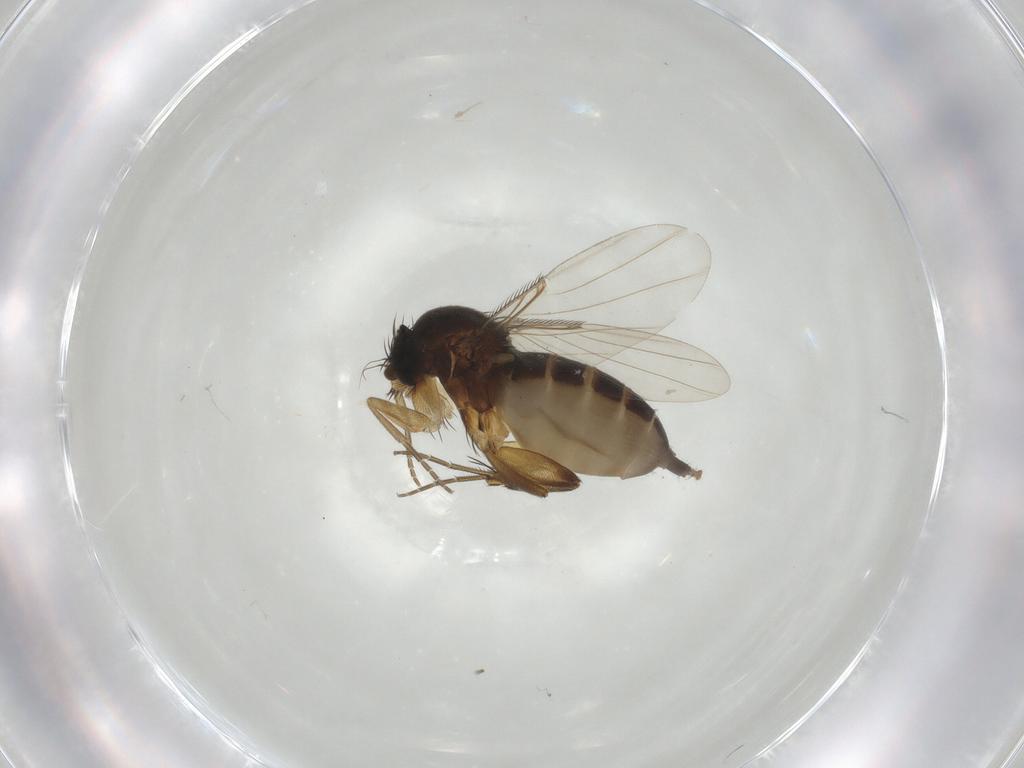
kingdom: Animalia
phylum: Arthropoda
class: Insecta
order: Diptera
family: Phoridae
